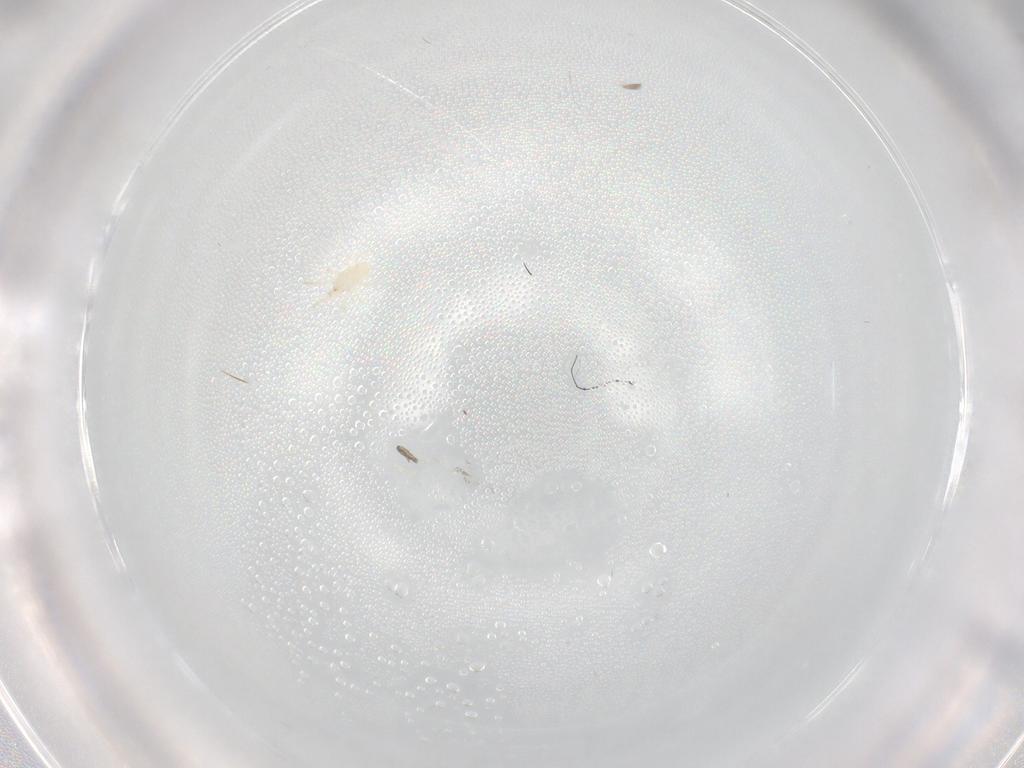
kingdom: Animalia
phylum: Arthropoda
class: Arachnida
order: Mesostigmata
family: Phytoseiidae
